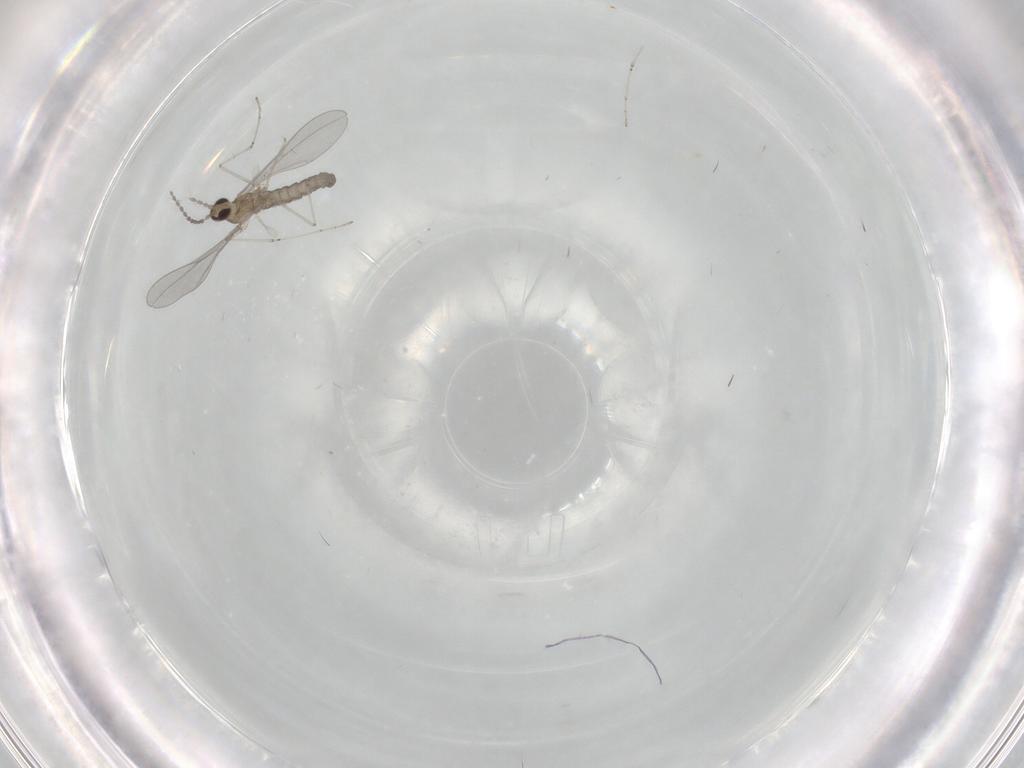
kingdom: Animalia
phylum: Arthropoda
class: Insecta
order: Diptera
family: Cecidomyiidae
